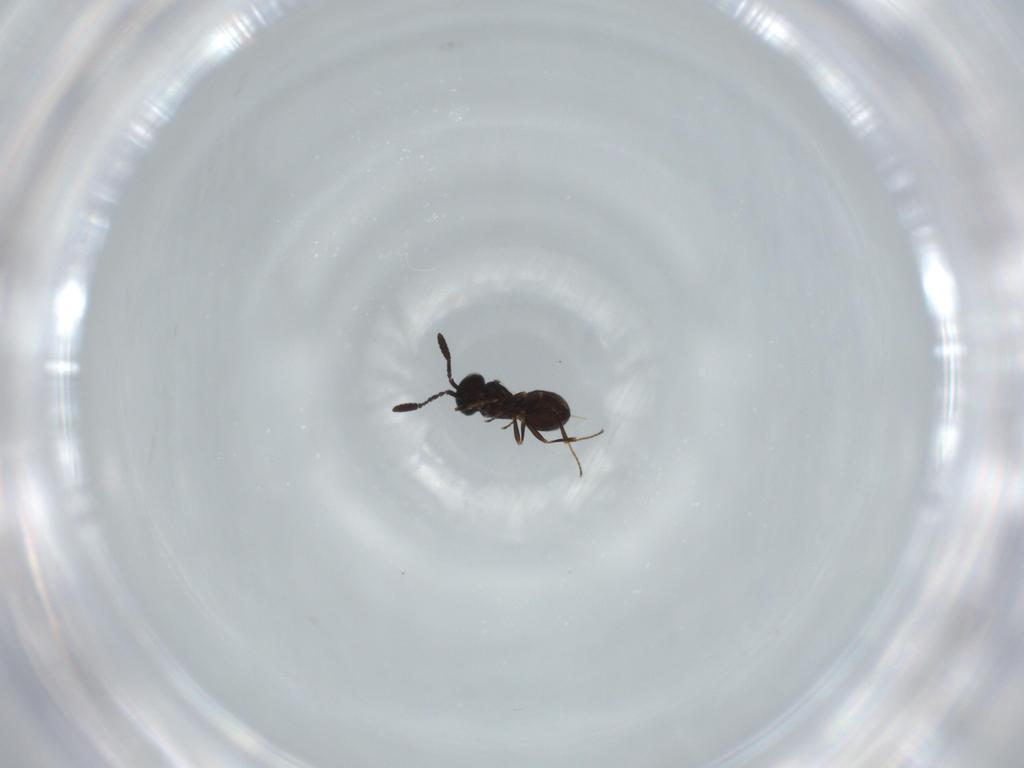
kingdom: Animalia
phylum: Arthropoda
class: Insecta
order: Hymenoptera
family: Scelionidae
